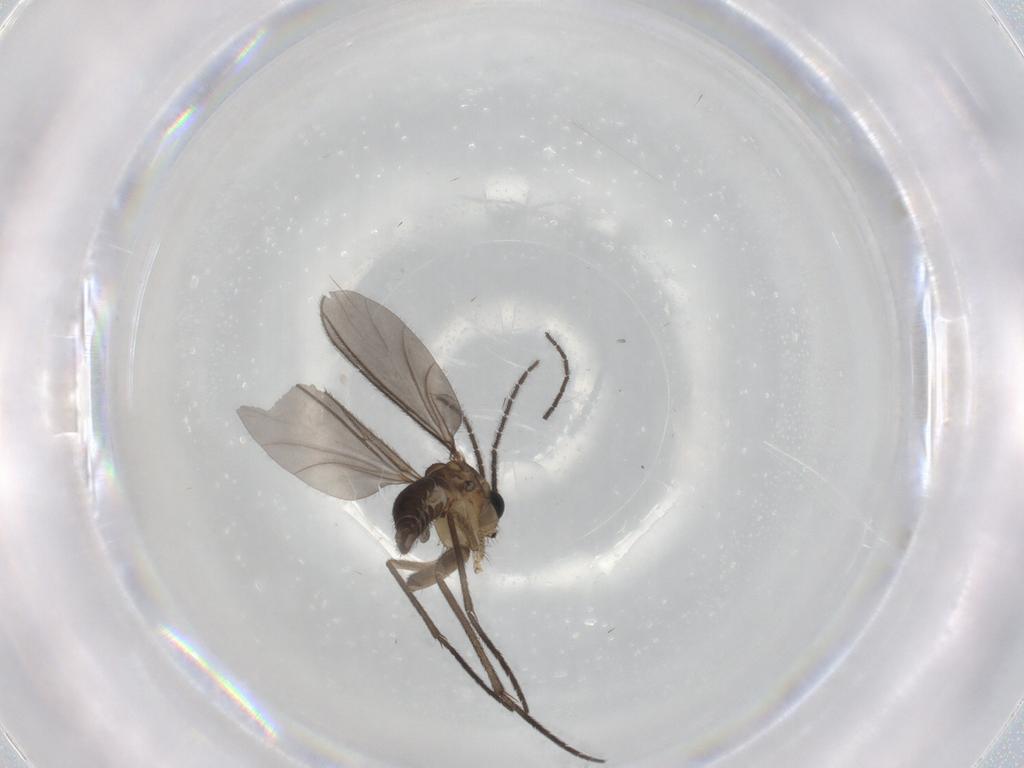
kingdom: Animalia
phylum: Arthropoda
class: Insecta
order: Diptera
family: Sciaridae
